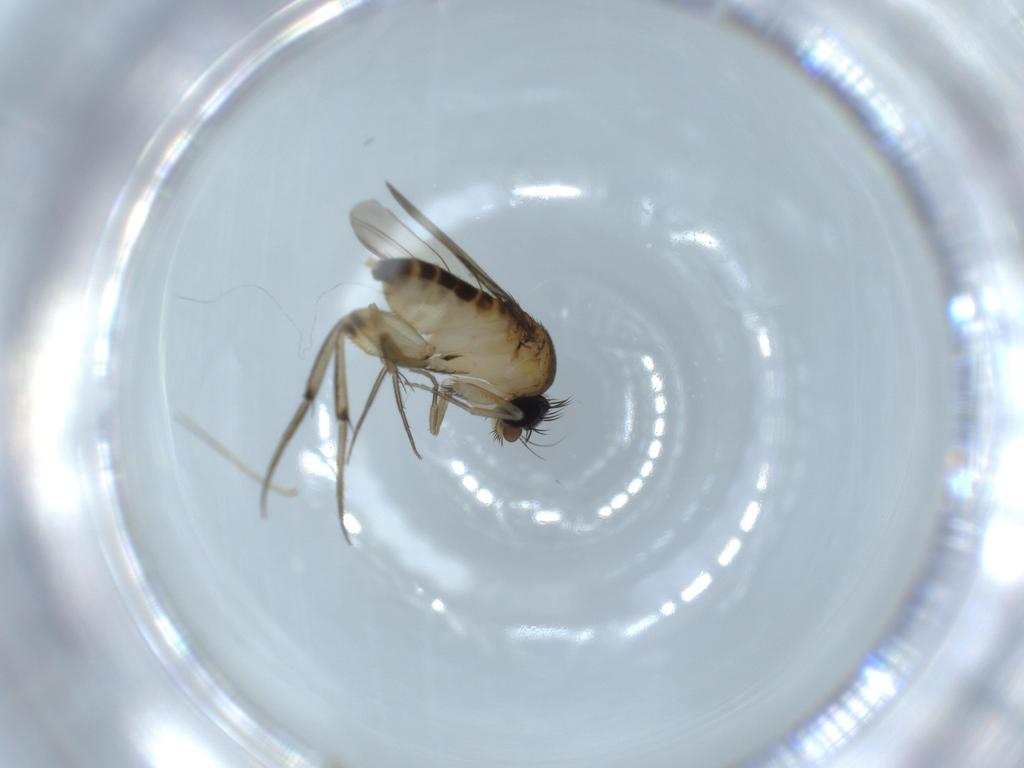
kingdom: Animalia
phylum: Arthropoda
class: Insecta
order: Diptera
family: Phoridae
